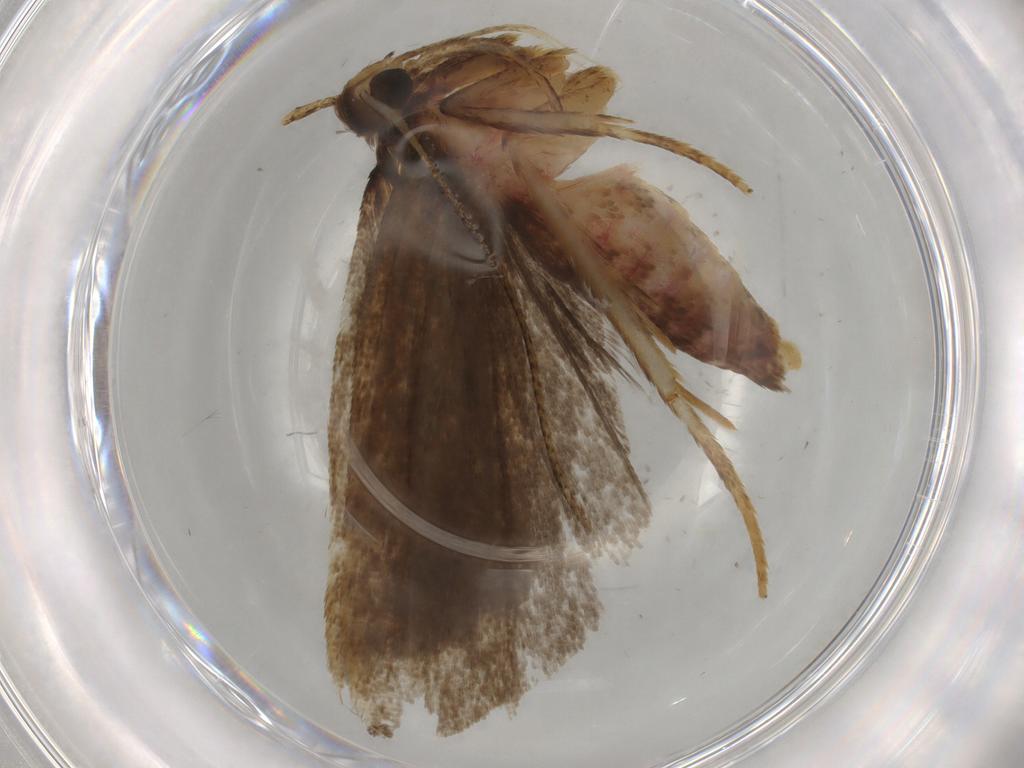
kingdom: Animalia
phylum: Arthropoda
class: Insecta
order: Lepidoptera
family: Autostichidae
